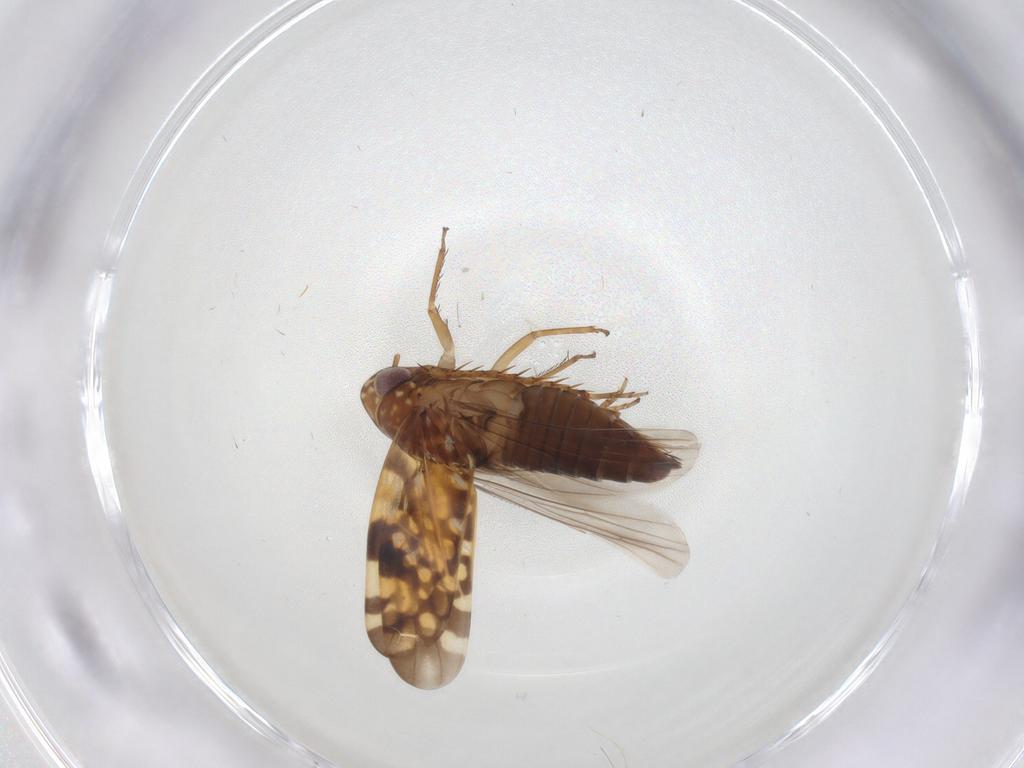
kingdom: Animalia
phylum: Arthropoda
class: Insecta
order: Hemiptera
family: Cicadellidae
